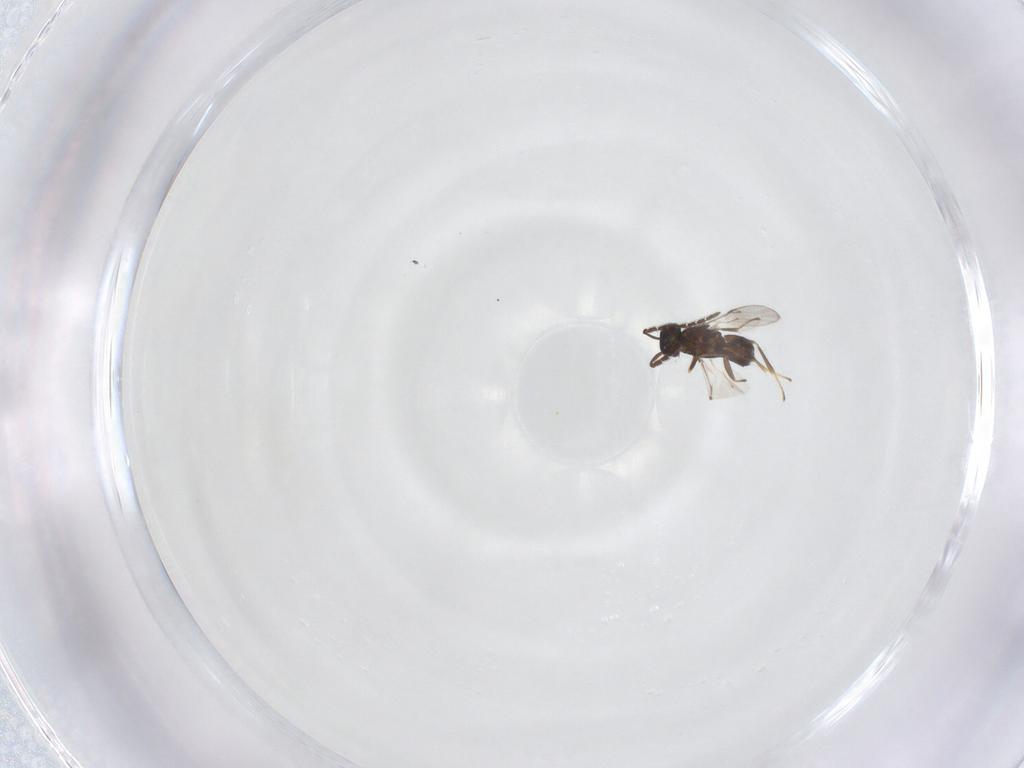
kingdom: Animalia
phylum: Arthropoda
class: Insecta
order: Hymenoptera
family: Encyrtidae
